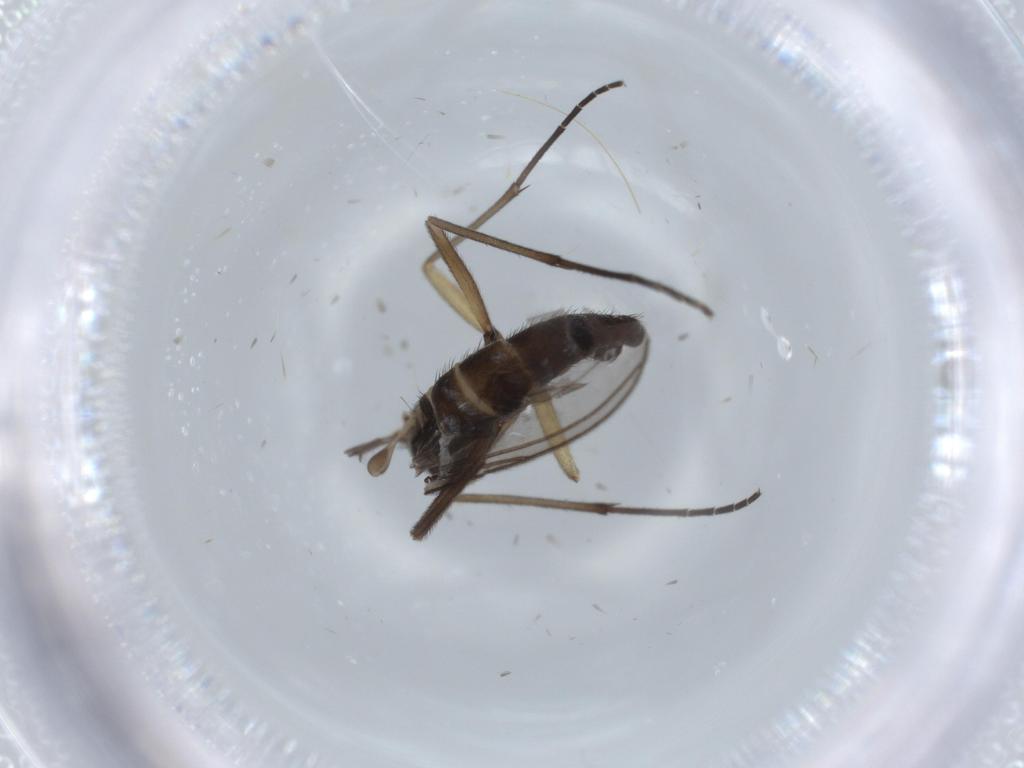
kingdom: Animalia
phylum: Arthropoda
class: Insecta
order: Diptera
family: Sciaridae
